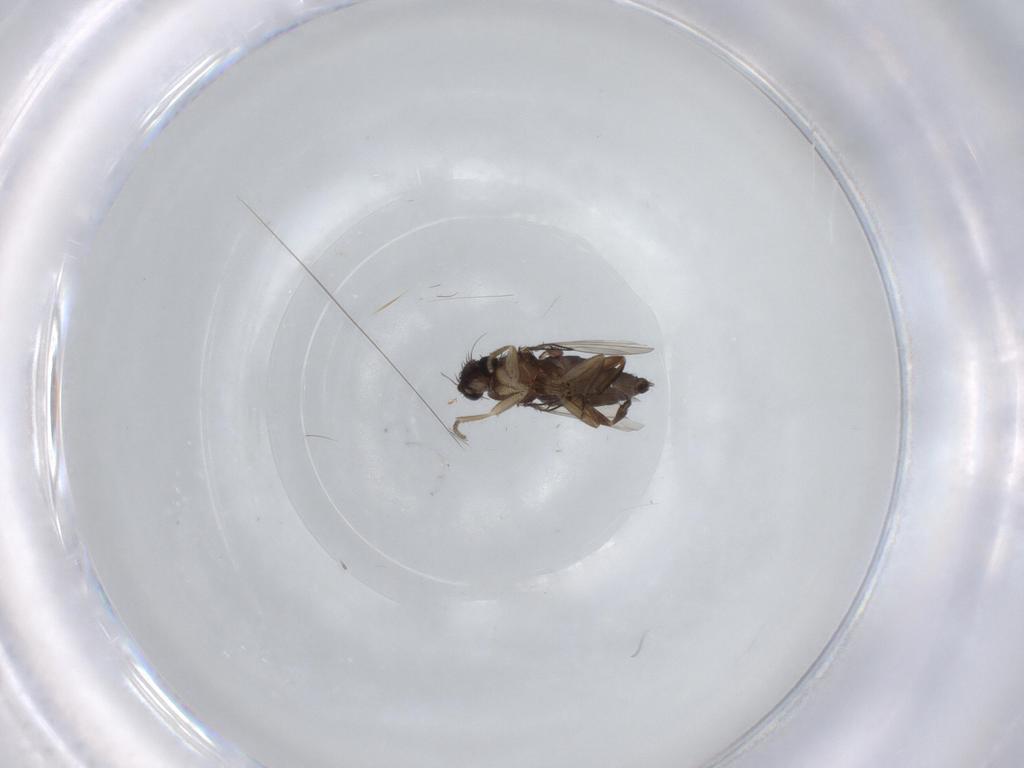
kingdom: Animalia
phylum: Arthropoda
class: Insecta
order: Diptera
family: Phoridae
